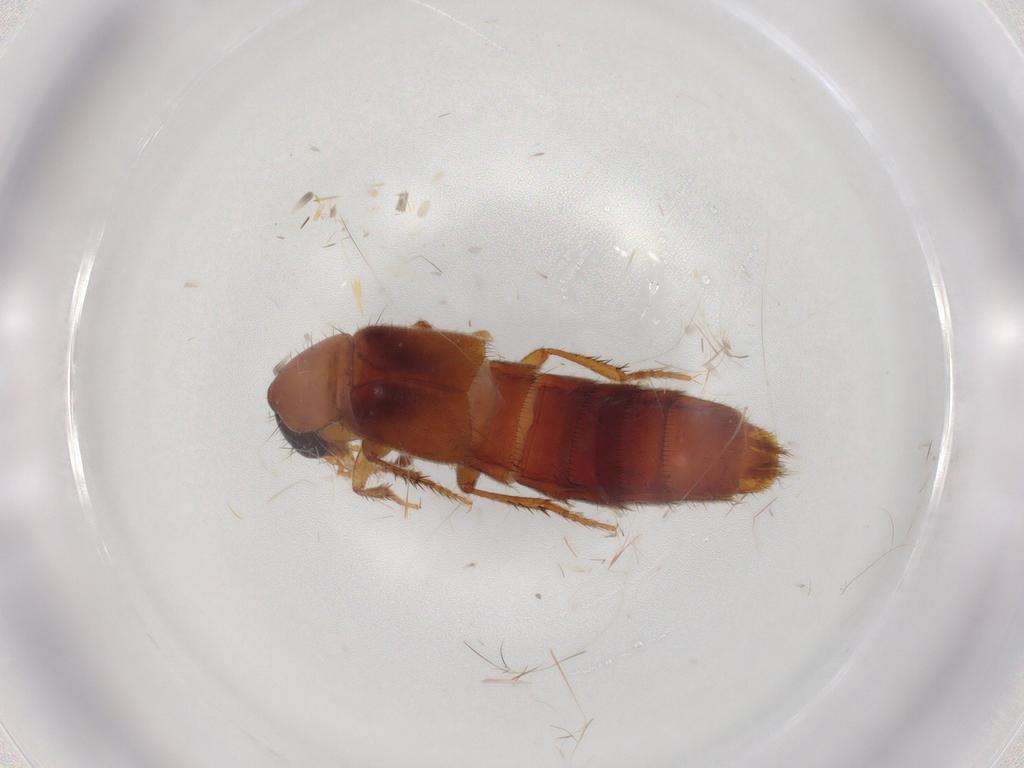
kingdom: Animalia
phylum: Arthropoda
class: Insecta
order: Coleoptera
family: Staphylinidae
